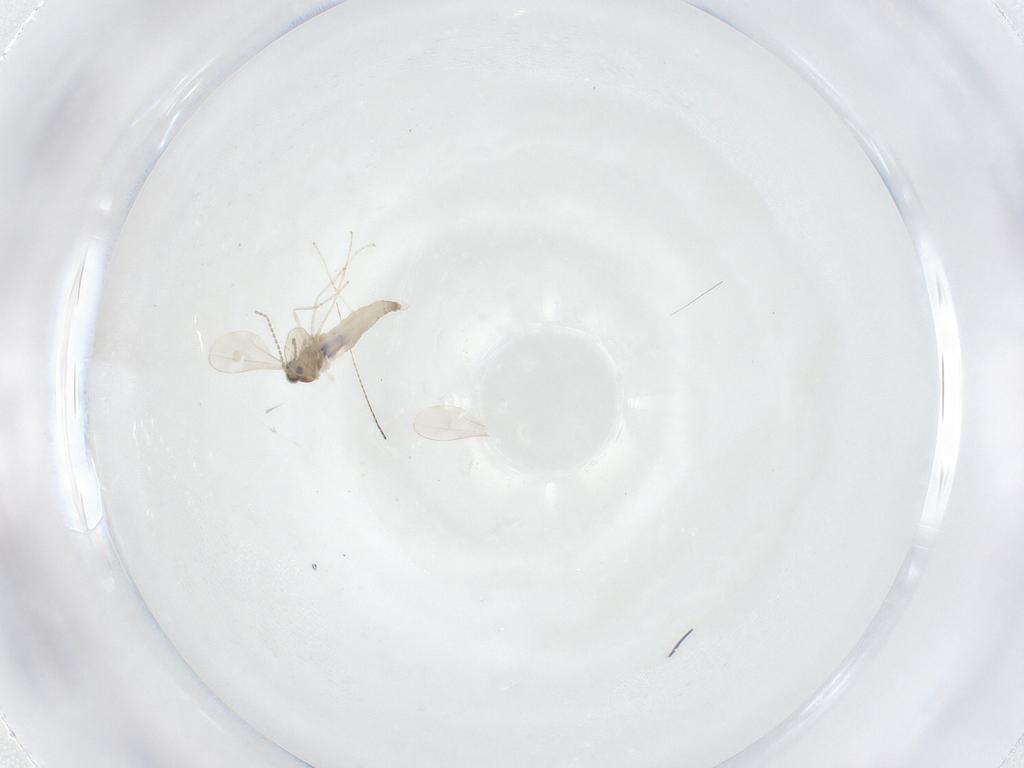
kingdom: Animalia
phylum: Arthropoda
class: Insecta
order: Diptera
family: Cecidomyiidae
